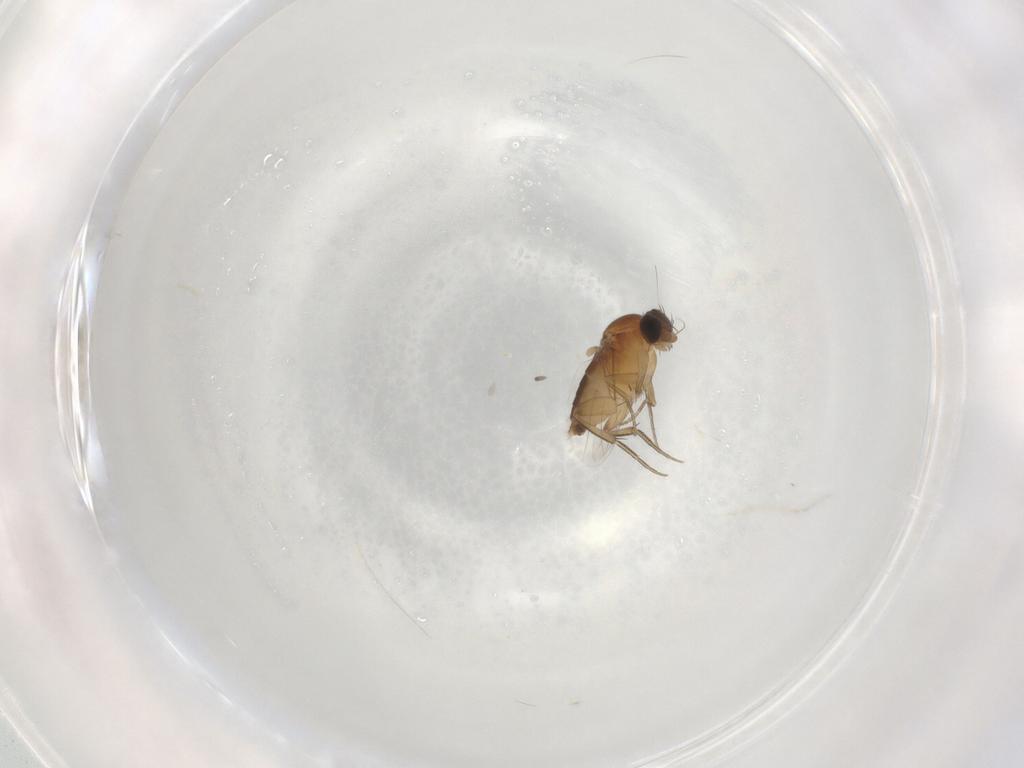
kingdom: Animalia
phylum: Arthropoda
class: Insecta
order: Diptera
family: Phoridae
